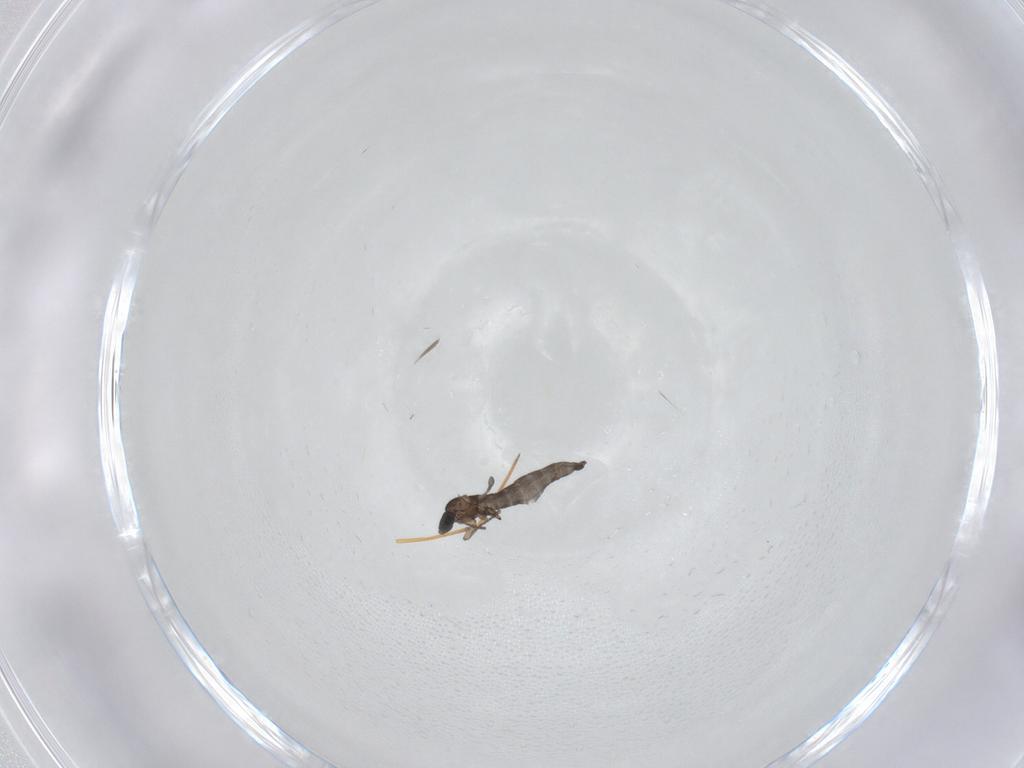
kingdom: Animalia
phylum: Arthropoda
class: Insecta
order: Diptera
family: Sciaridae
